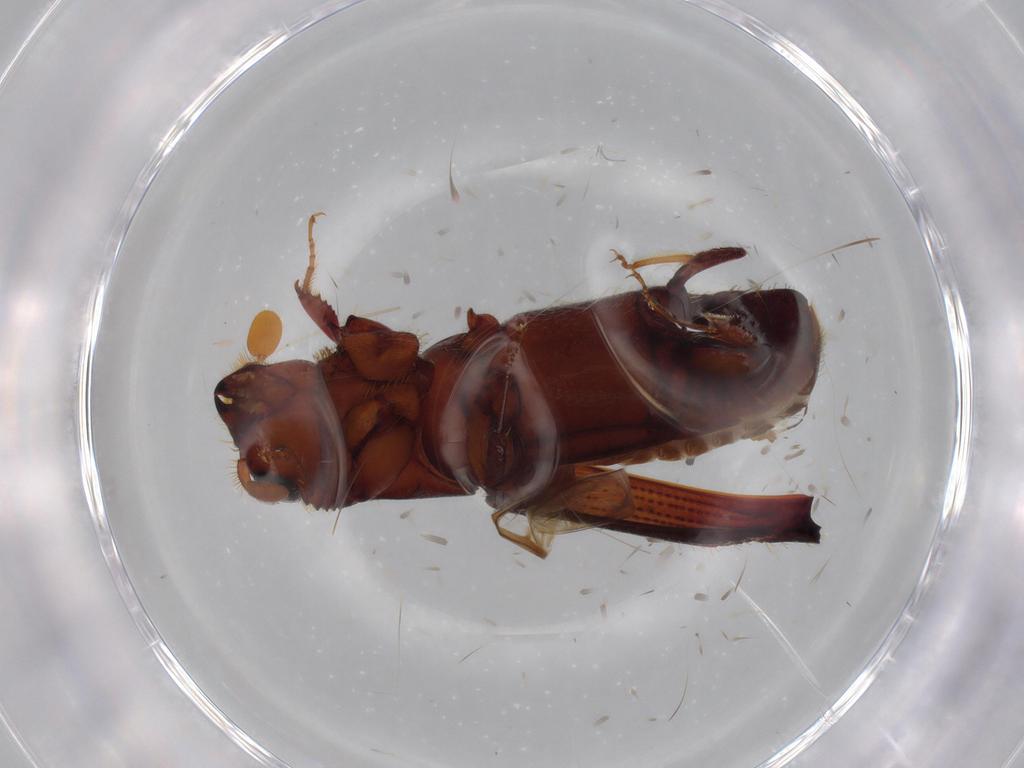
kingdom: Animalia
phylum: Arthropoda
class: Insecta
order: Coleoptera
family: Curculionidae
